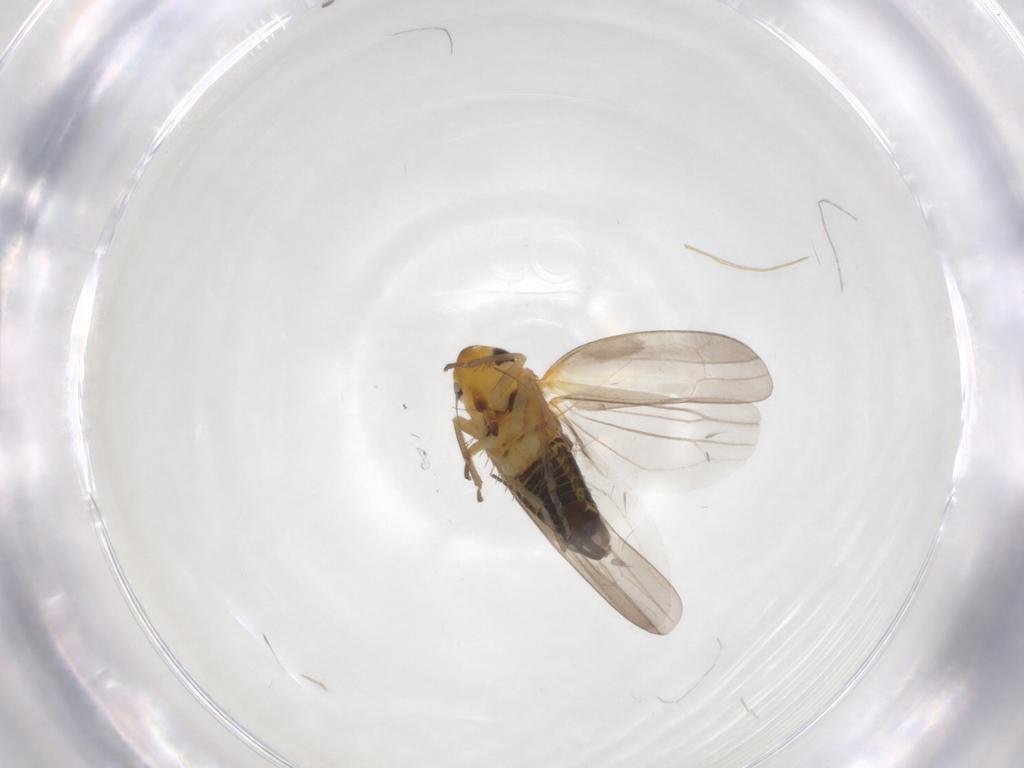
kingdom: Animalia
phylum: Arthropoda
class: Insecta
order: Hemiptera
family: Cicadellidae
